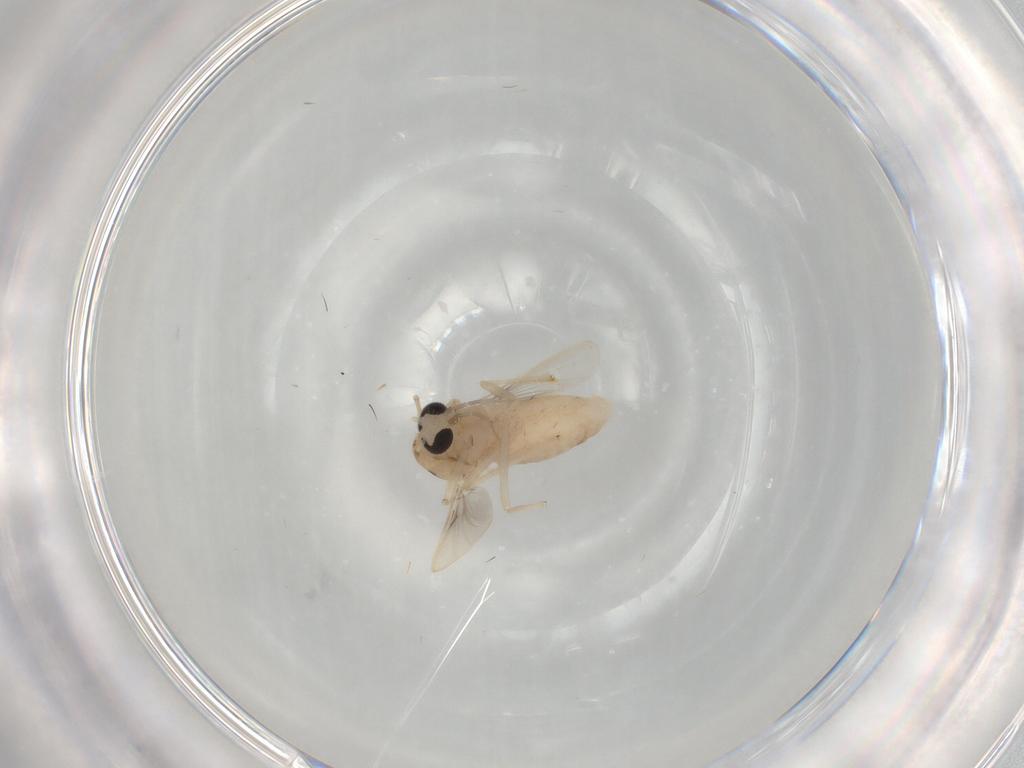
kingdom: Animalia
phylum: Arthropoda
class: Insecta
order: Diptera
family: Chironomidae
